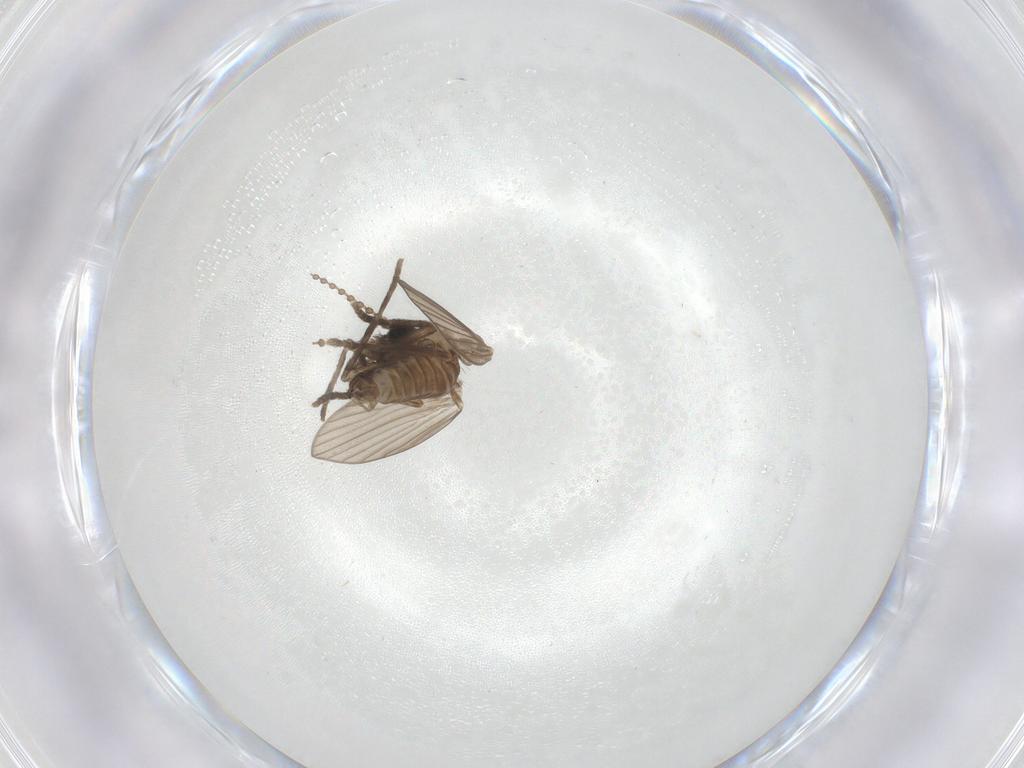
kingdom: Animalia
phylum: Arthropoda
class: Insecta
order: Diptera
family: Psychodidae
